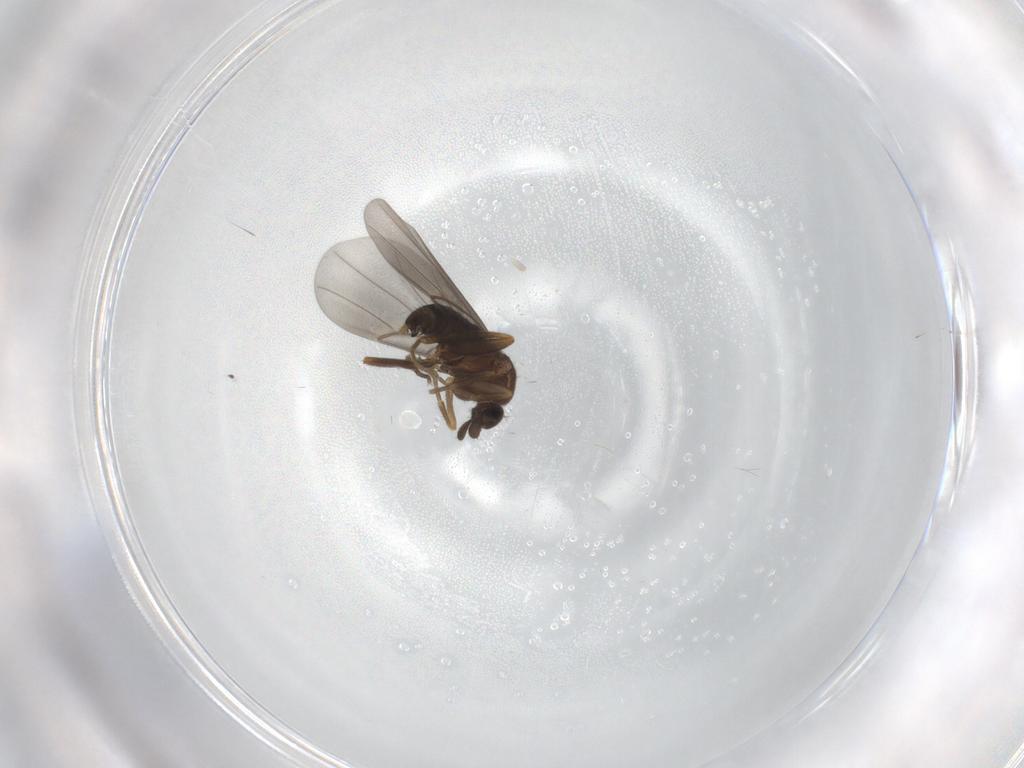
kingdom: Animalia
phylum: Arthropoda
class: Insecta
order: Diptera
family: Phoridae
